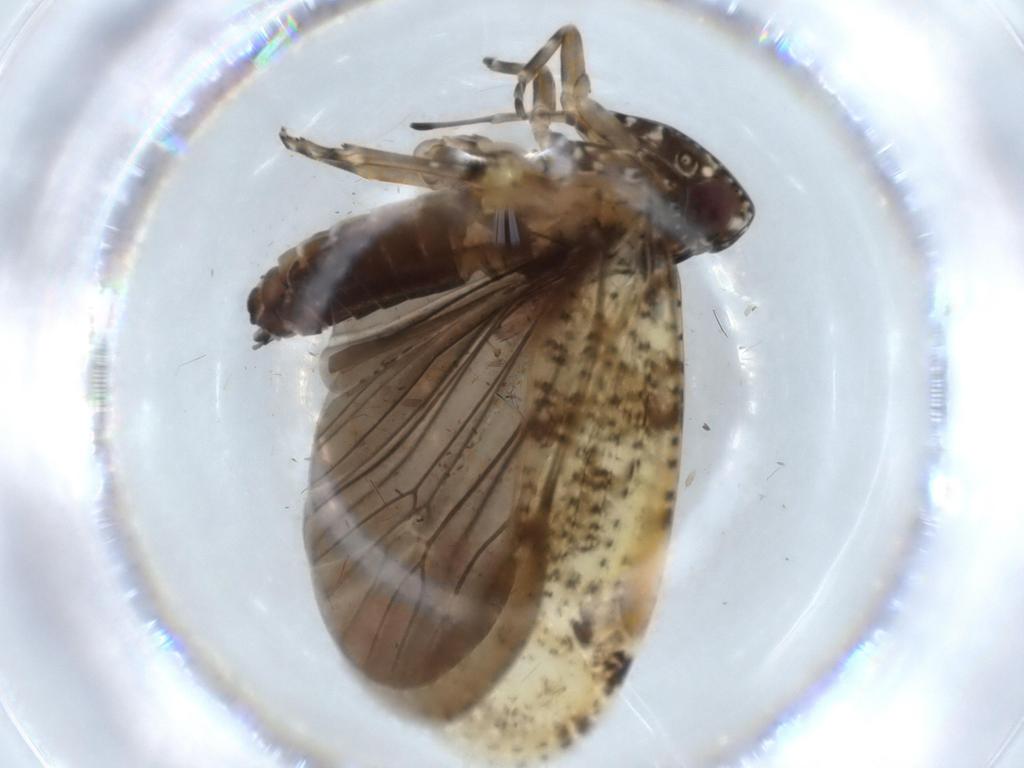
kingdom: Animalia
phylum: Arthropoda
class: Insecta
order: Hemiptera
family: Achilidae
